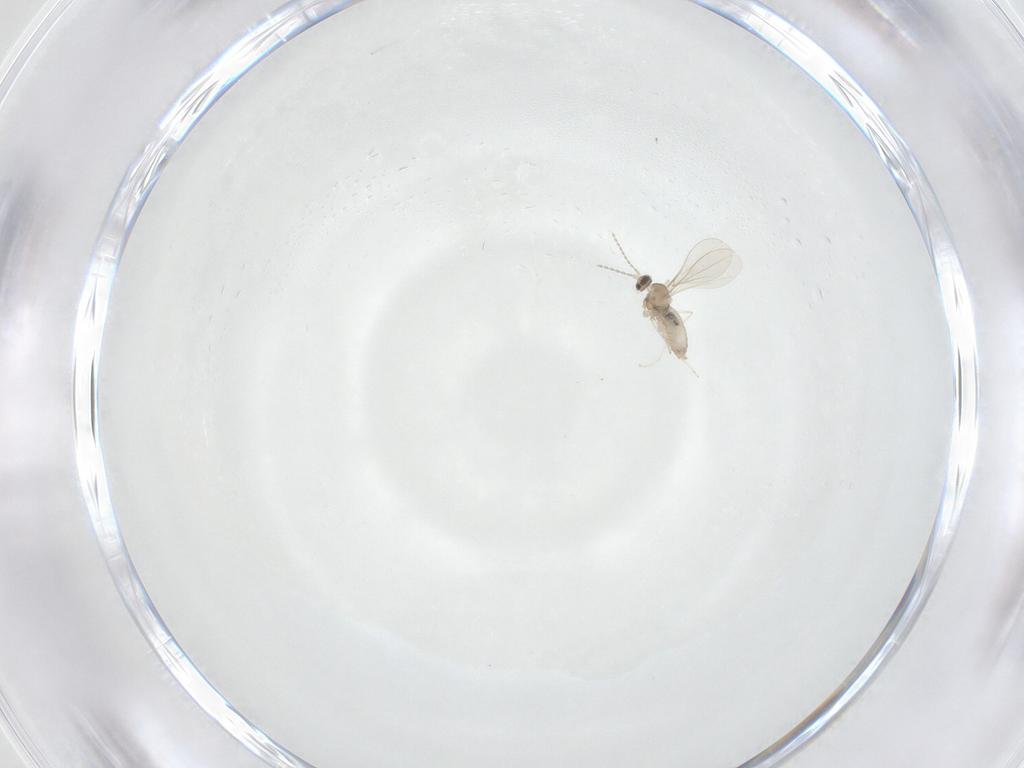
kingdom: Animalia
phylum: Arthropoda
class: Insecta
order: Diptera
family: Cecidomyiidae
